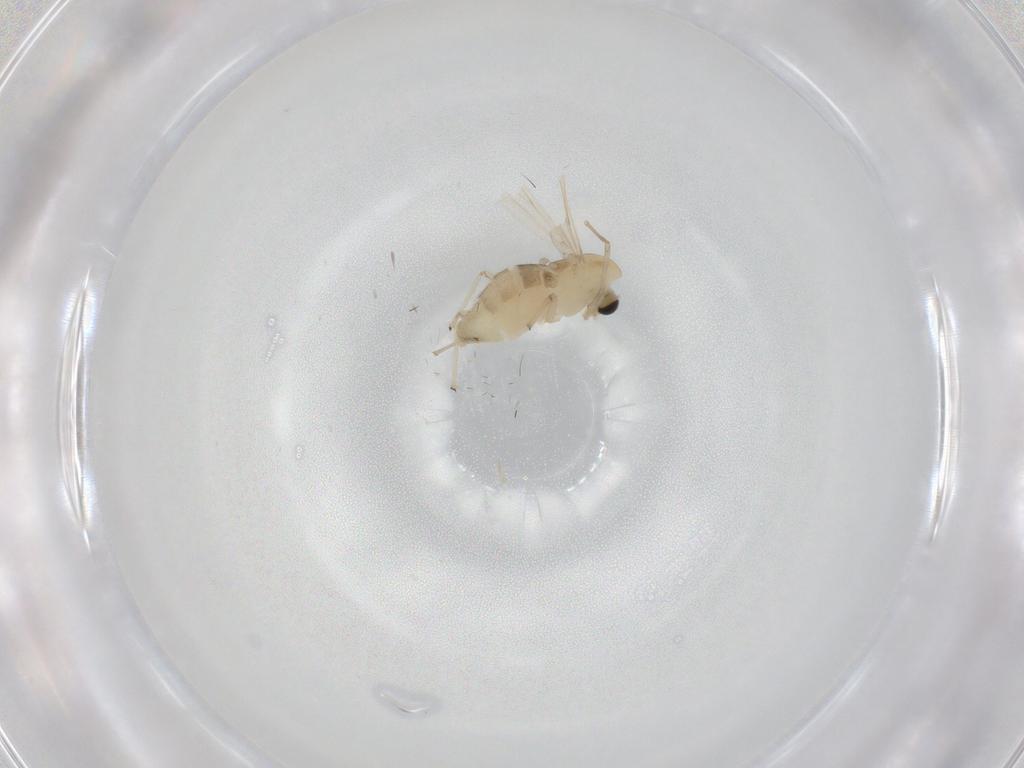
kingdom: Animalia
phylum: Arthropoda
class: Insecta
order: Diptera
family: Chironomidae
